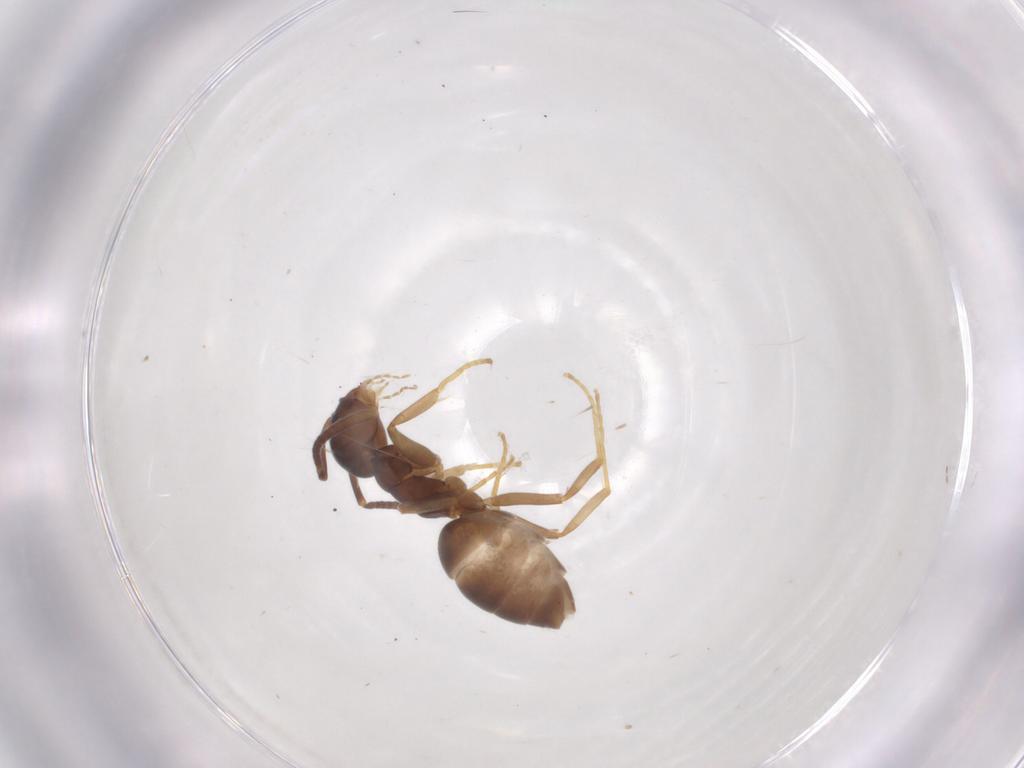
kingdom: Animalia
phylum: Arthropoda
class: Insecta
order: Hymenoptera
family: Formicidae
